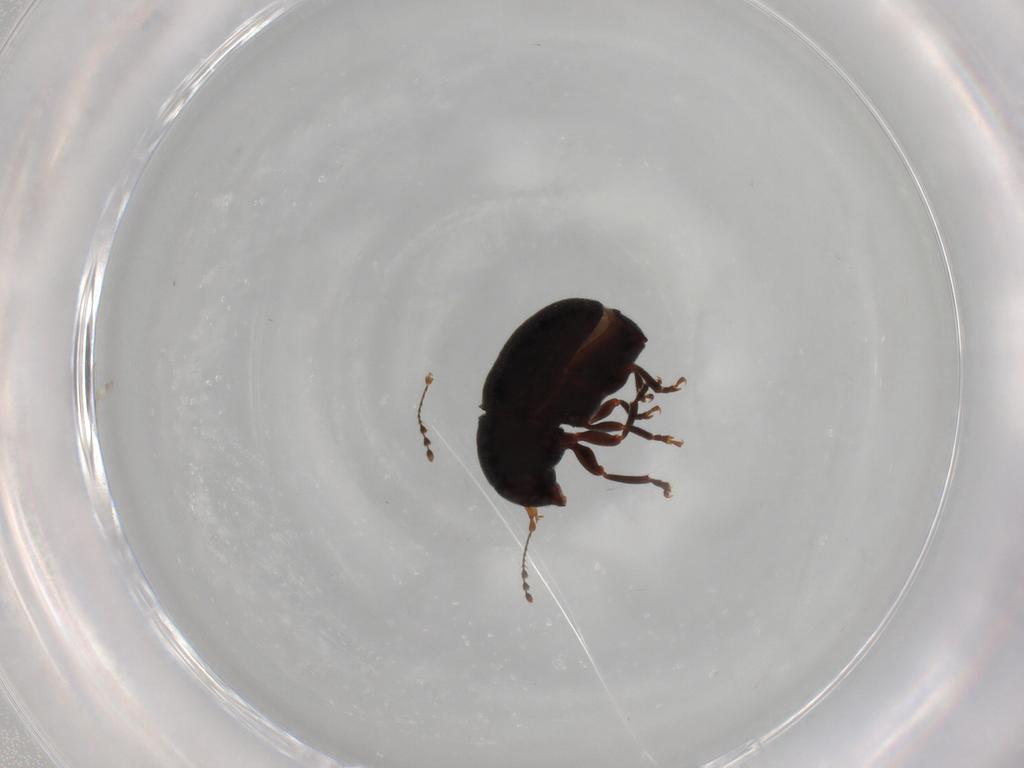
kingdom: Animalia
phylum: Arthropoda
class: Insecta
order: Coleoptera
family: Anthribidae
